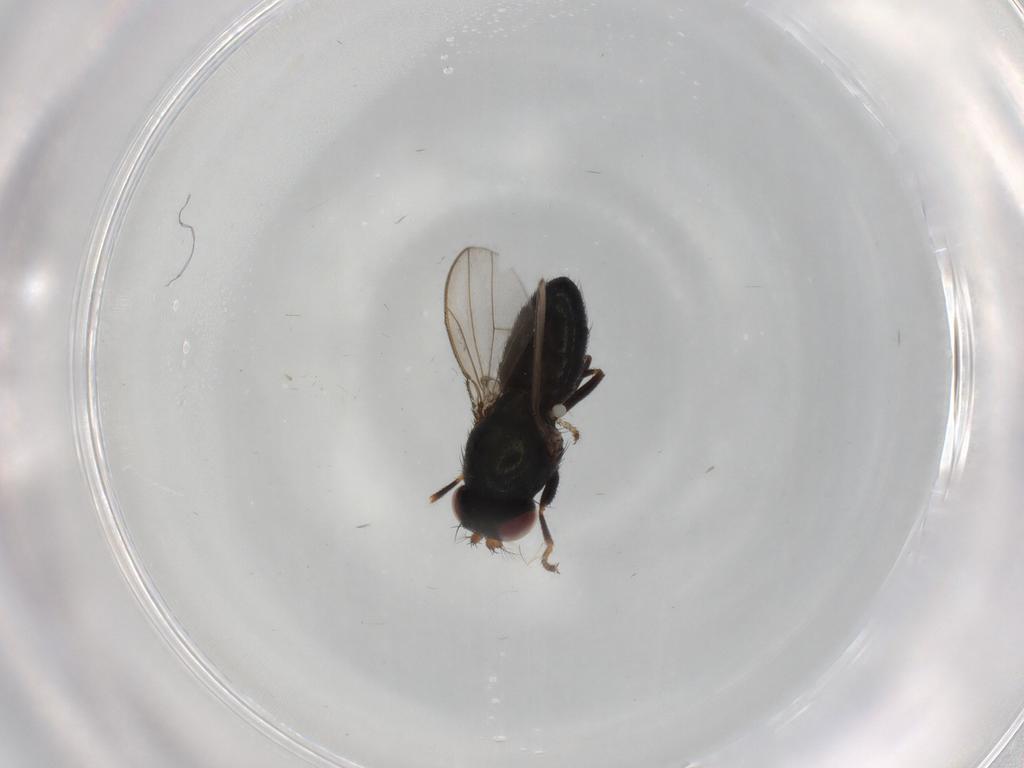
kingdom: Animalia
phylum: Arthropoda
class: Insecta
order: Diptera
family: Ephydridae
